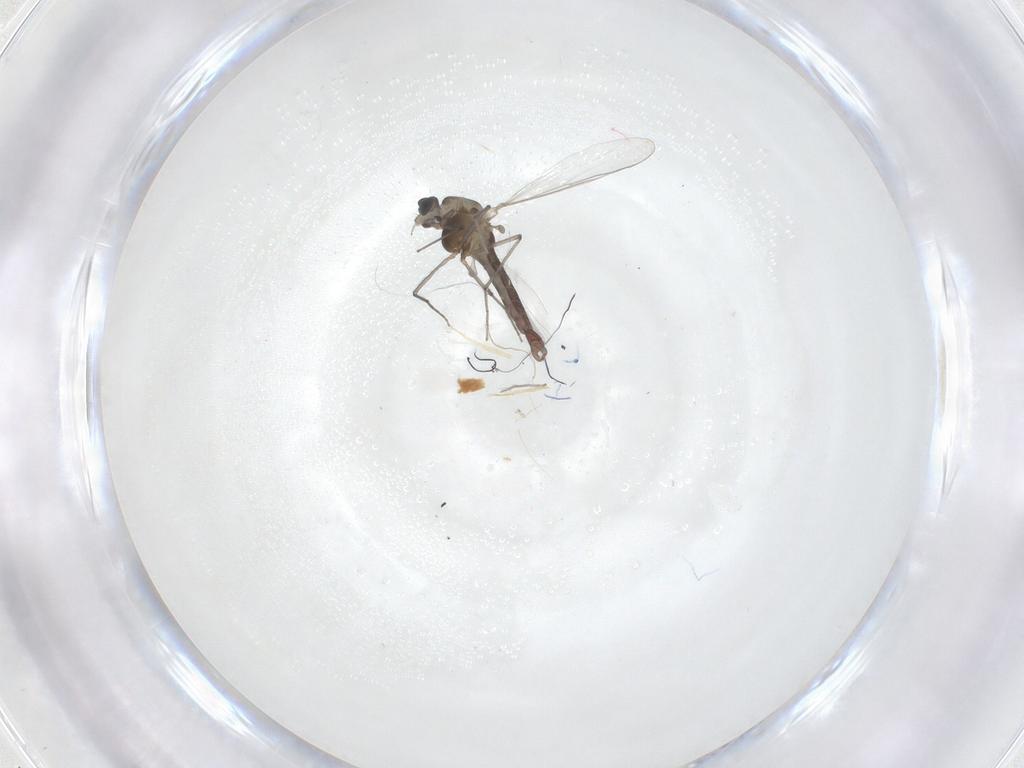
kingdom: Animalia
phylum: Arthropoda
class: Insecta
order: Diptera
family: Chironomidae
